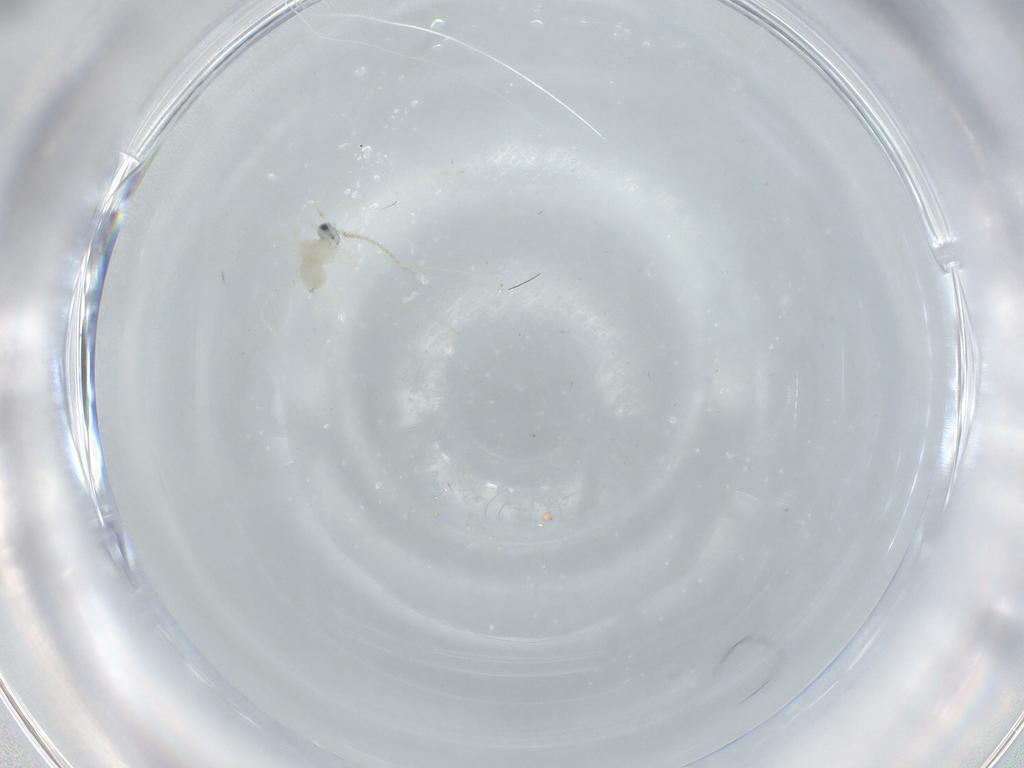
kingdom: Animalia
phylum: Arthropoda
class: Insecta
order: Diptera
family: Cecidomyiidae
